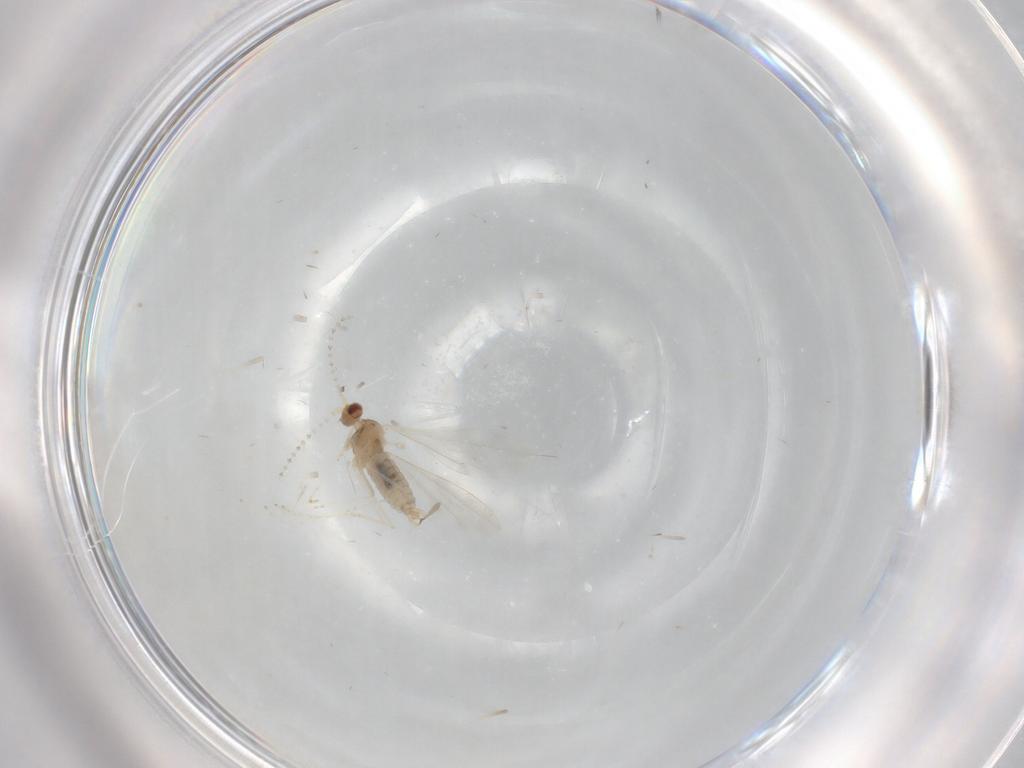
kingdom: Animalia
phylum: Arthropoda
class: Insecta
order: Diptera
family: Cecidomyiidae
